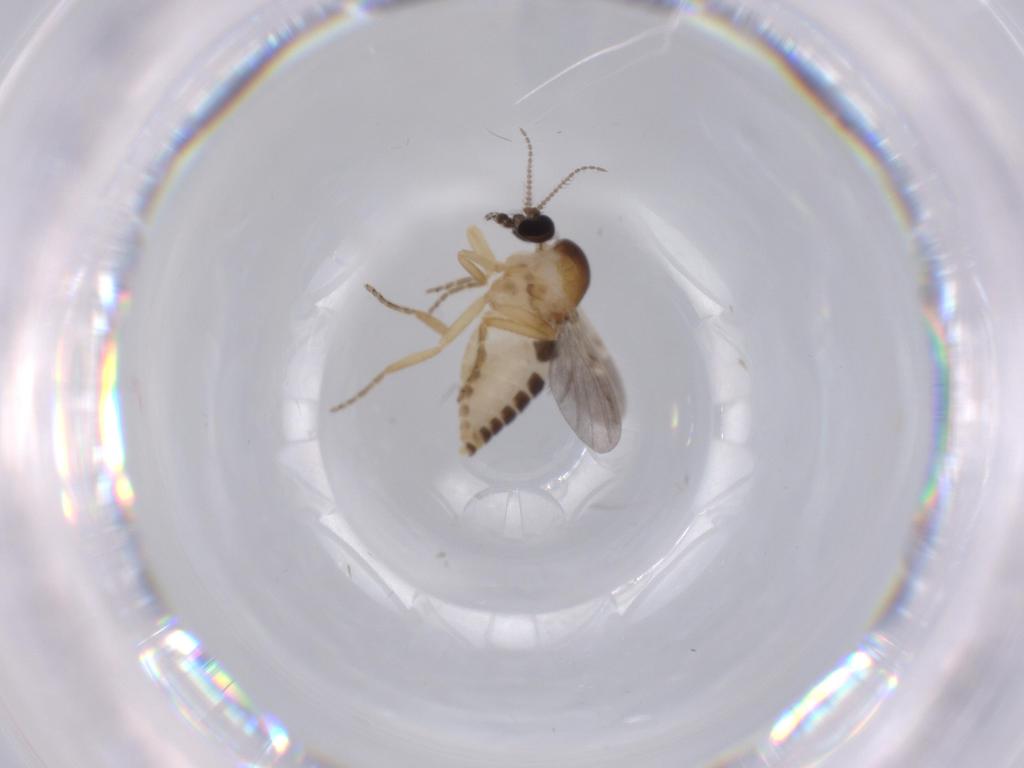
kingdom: Animalia
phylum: Arthropoda
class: Insecta
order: Diptera
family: Ceratopogonidae
